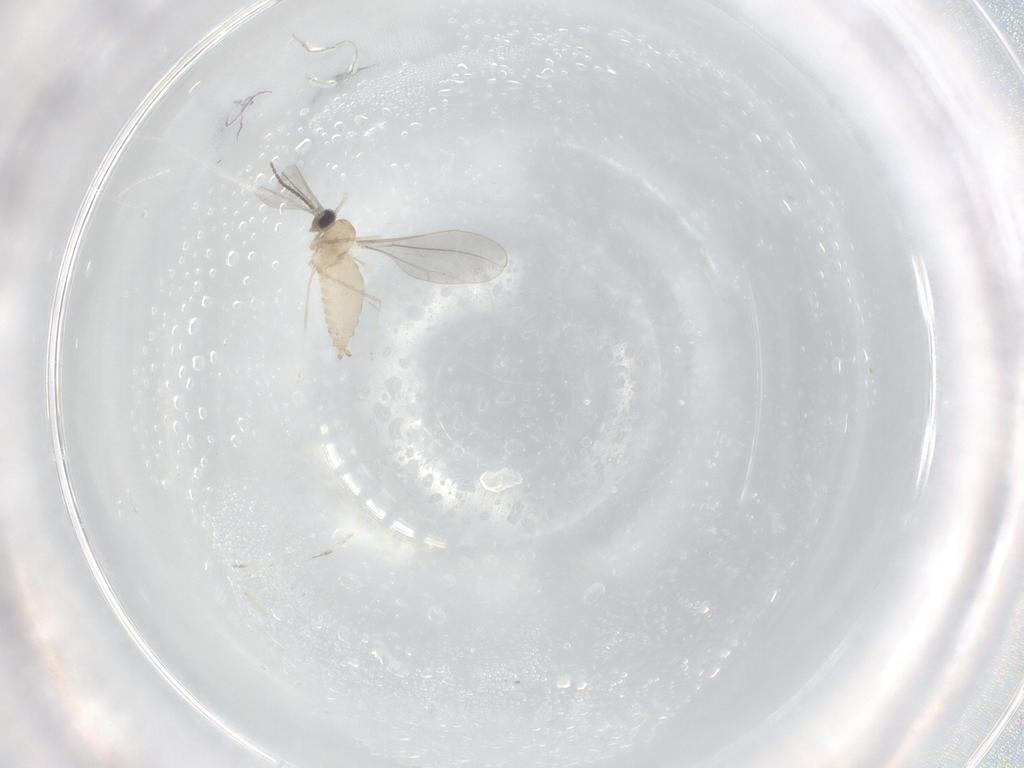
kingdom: Animalia
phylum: Arthropoda
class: Insecta
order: Diptera
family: Cecidomyiidae
